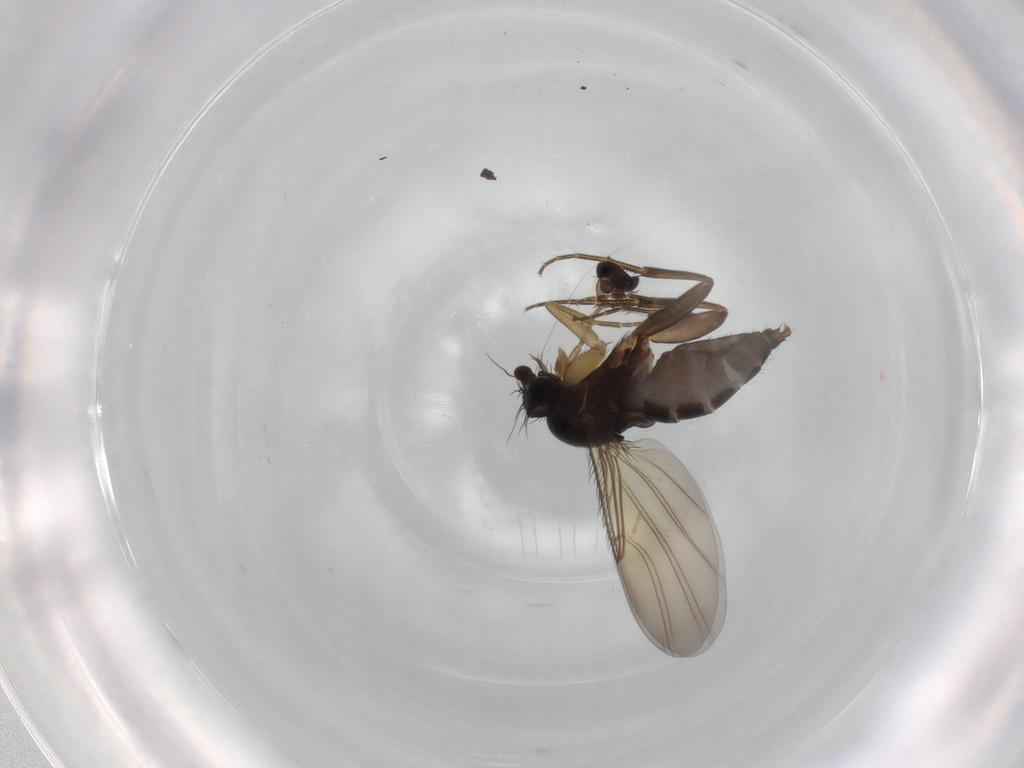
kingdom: Animalia
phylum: Arthropoda
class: Insecta
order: Diptera
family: Phoridae
